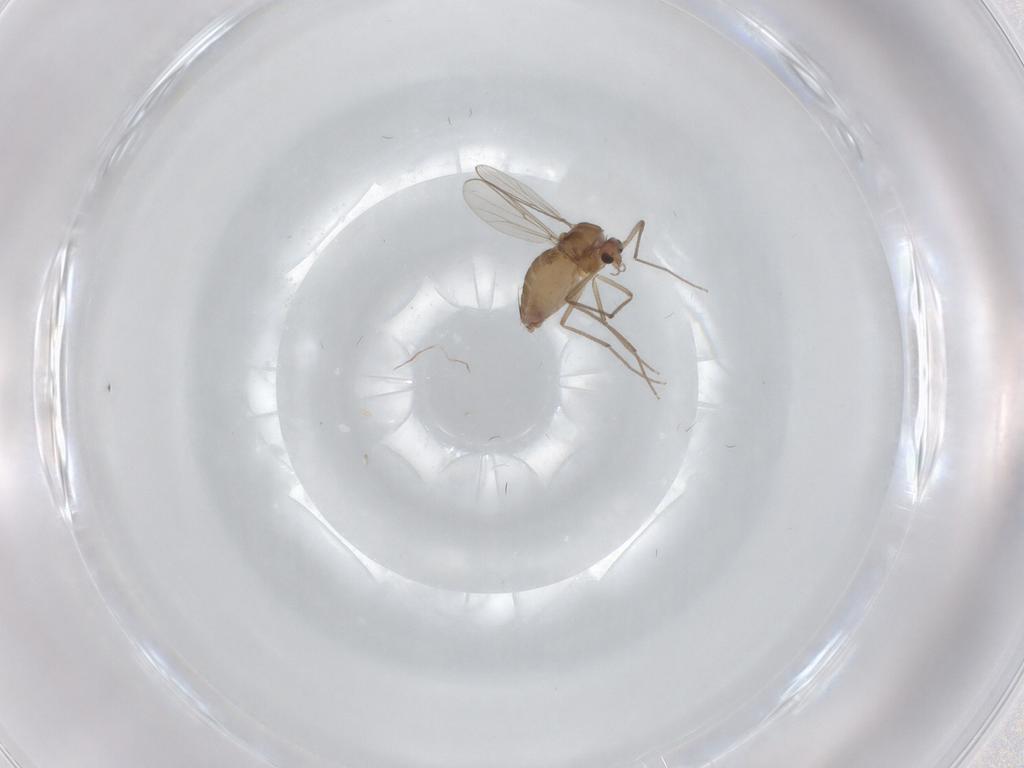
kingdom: Animalia
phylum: Arthropoda
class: Insecta
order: Diptera
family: Chironomidae
